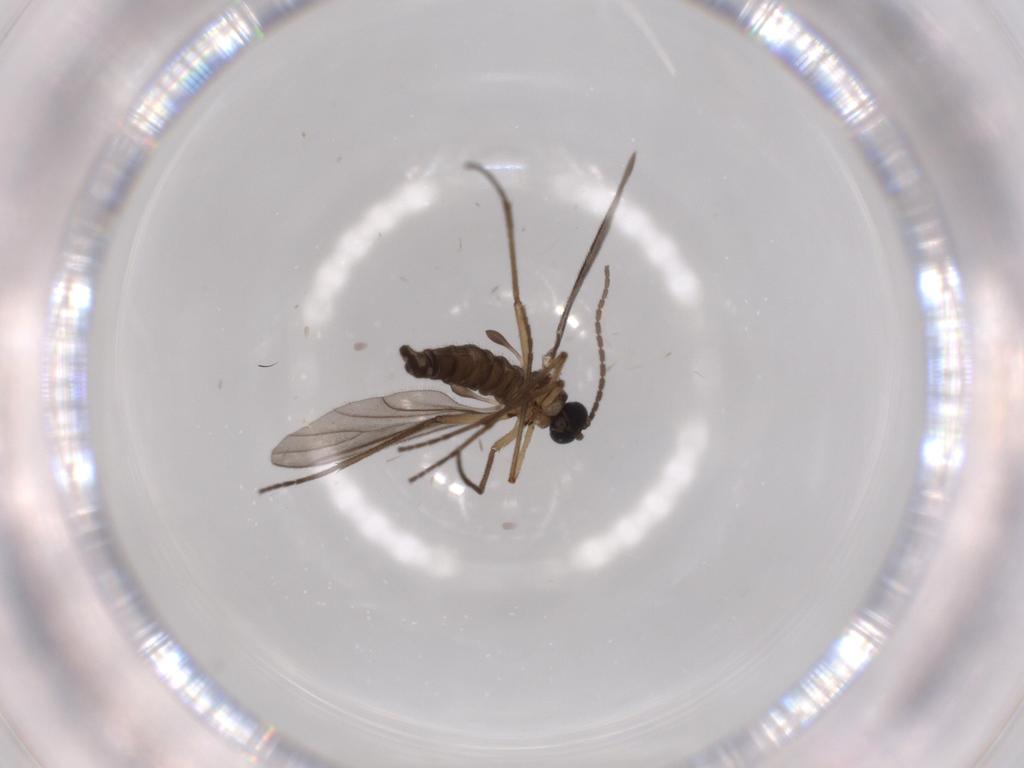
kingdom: Animalia
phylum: Arthropoda
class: Insecta
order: Diptera
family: Sciaridae
